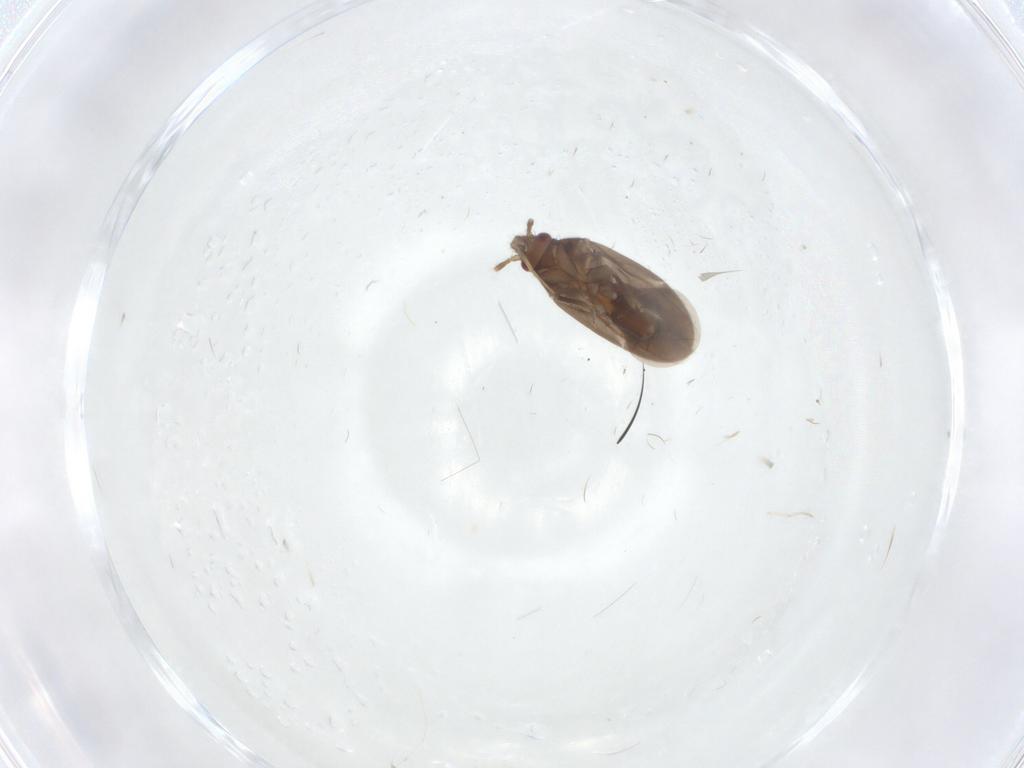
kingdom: Animalia
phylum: Arthropoda
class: Insecta
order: Hemiptera
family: Ceratocombidae
